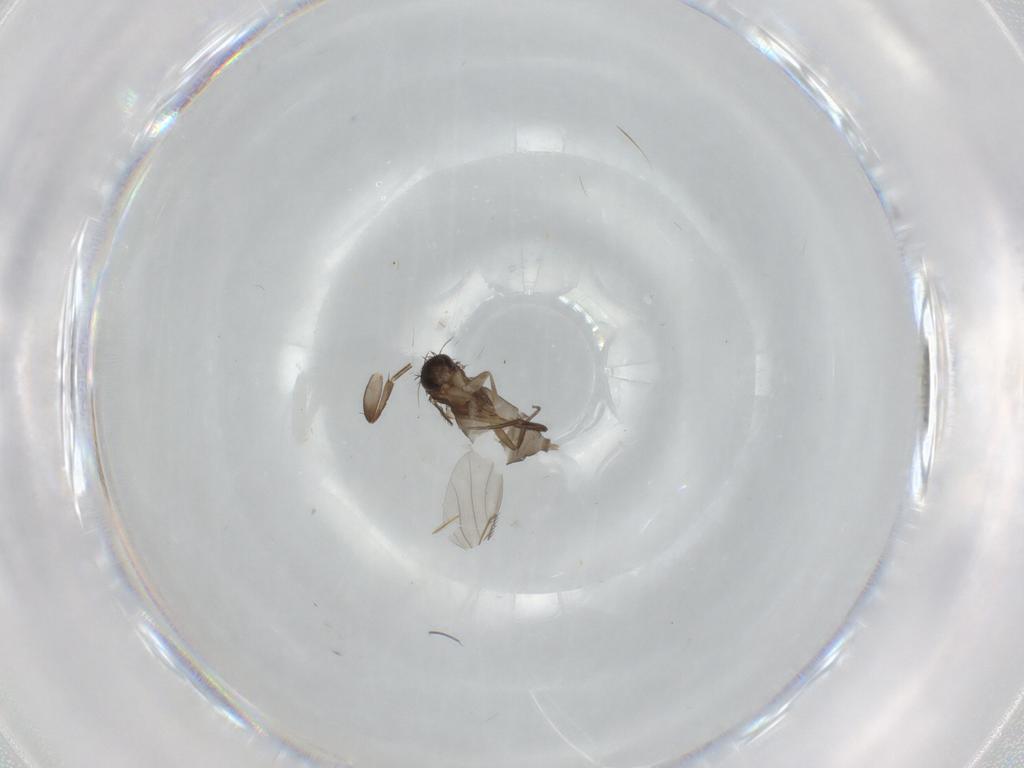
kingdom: Animalia
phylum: Arthropoda
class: Insecta
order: Diptera
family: Phoridae
